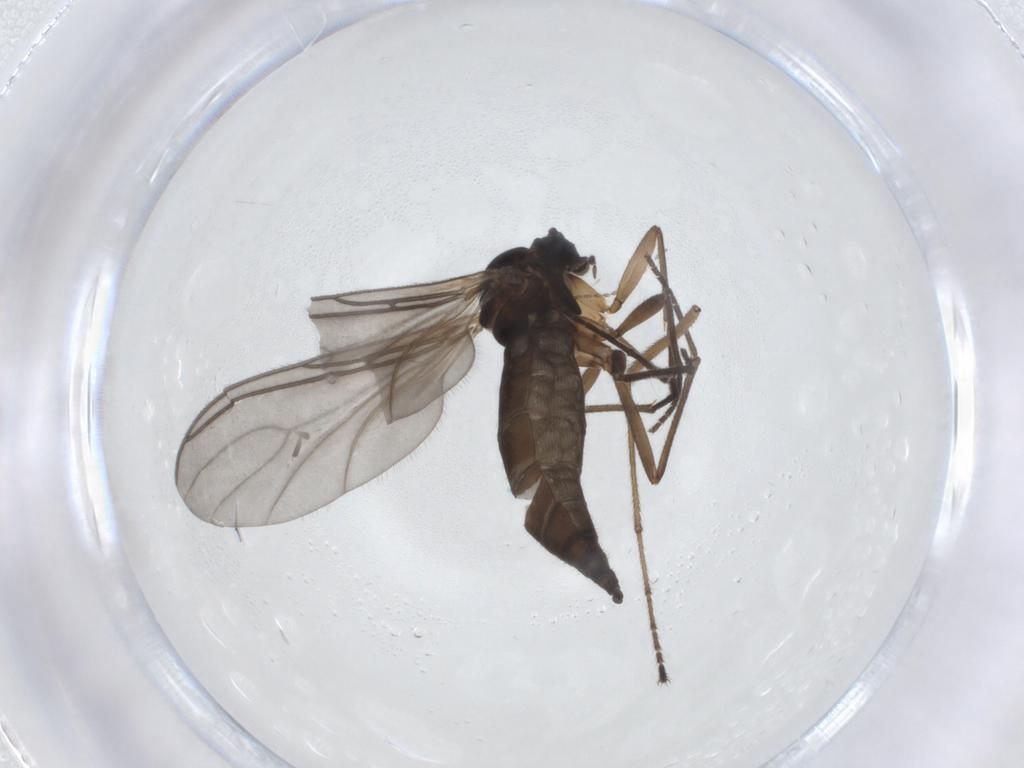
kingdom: Animalia
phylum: Arthropoda
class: Insecta
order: Diptera
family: Sciaridae
